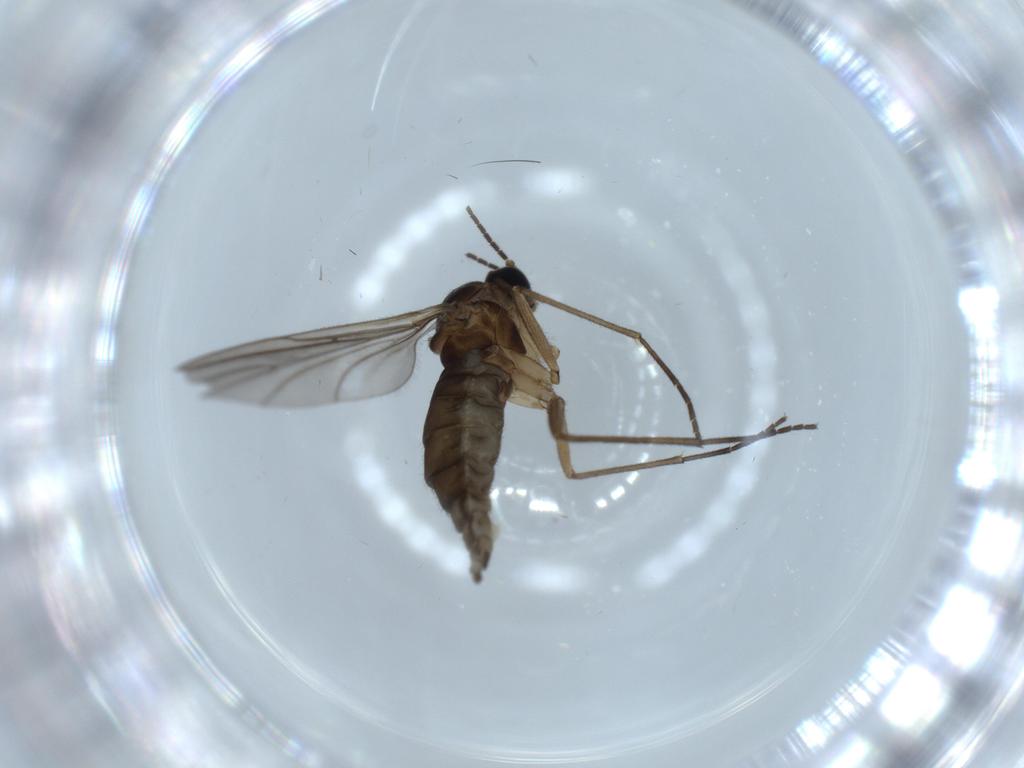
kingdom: Animalia
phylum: Arthropoda
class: Insecta
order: Diptera
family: Sciaridae
